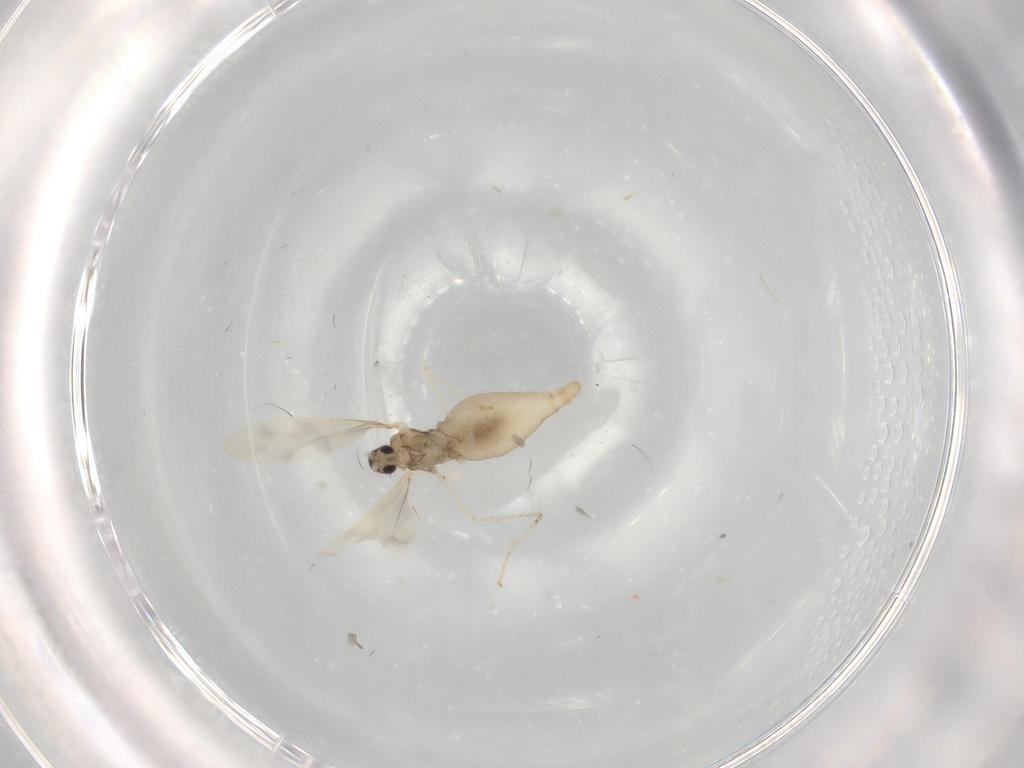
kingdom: Animalia
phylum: Arthropoda
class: Insecta
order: Diptera
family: Cecidomyiidae
